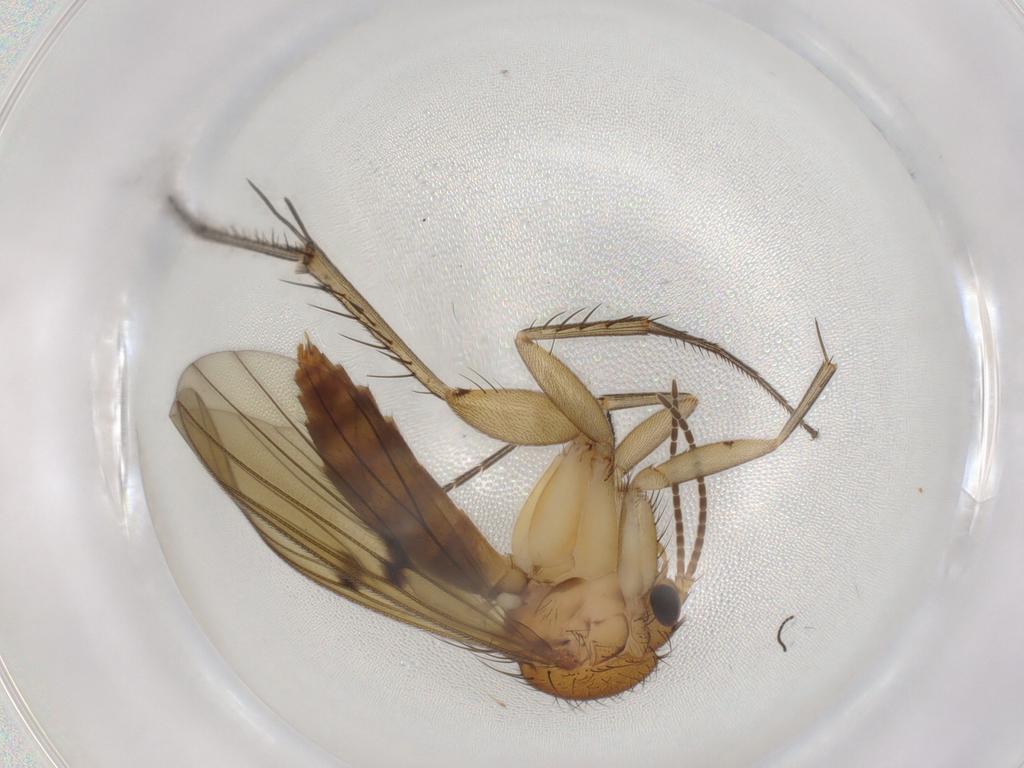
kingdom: Animalia
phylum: Arthropoda
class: Insecta
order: Diptera
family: Mycetophilidae
